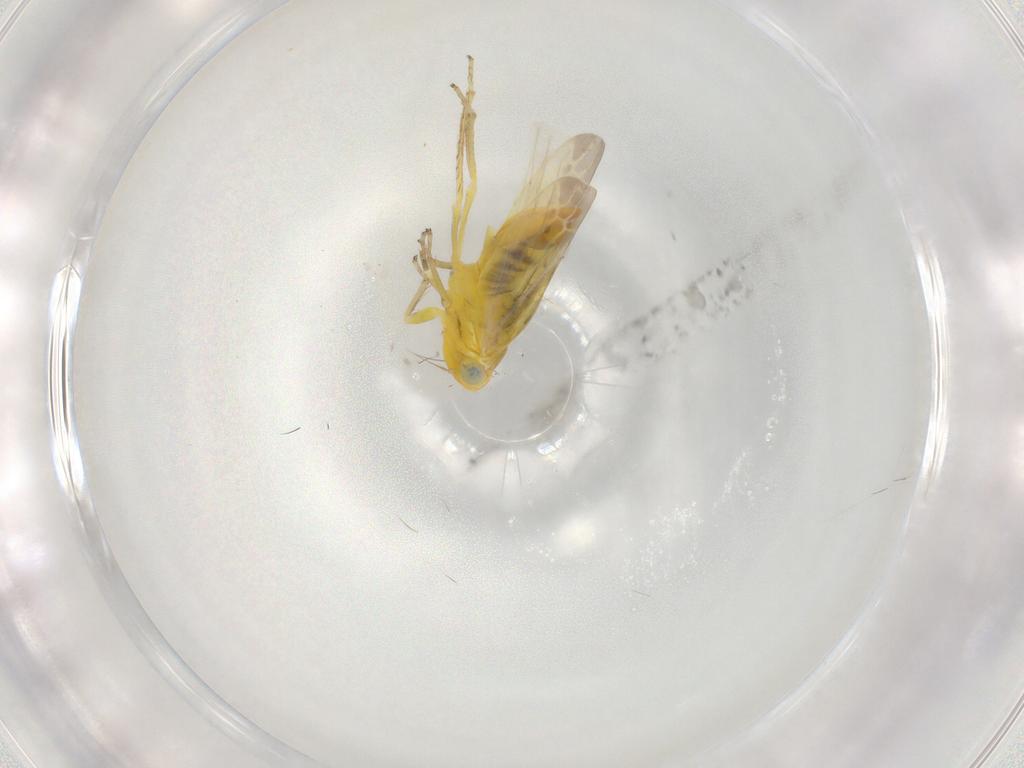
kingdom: Animalia
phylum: Arthropoda
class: Insecta
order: Hemiptera
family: Cicadellidae
